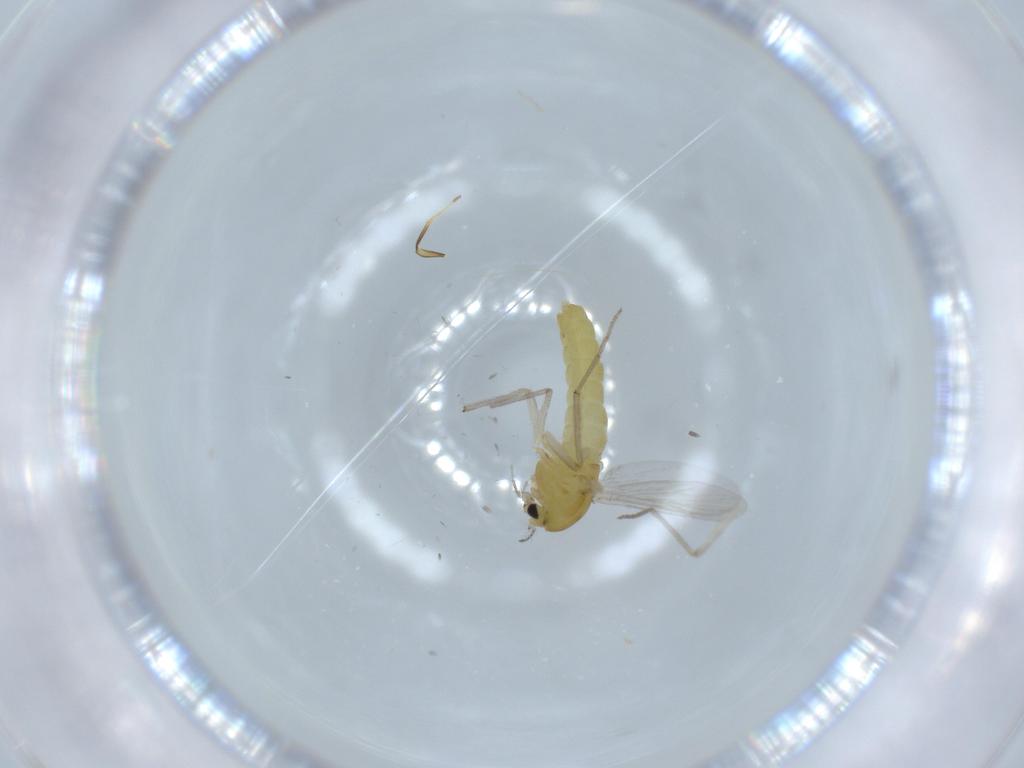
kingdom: Animalia
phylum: Arthropoda
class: Insecta
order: Diptera
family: Chironomidae
